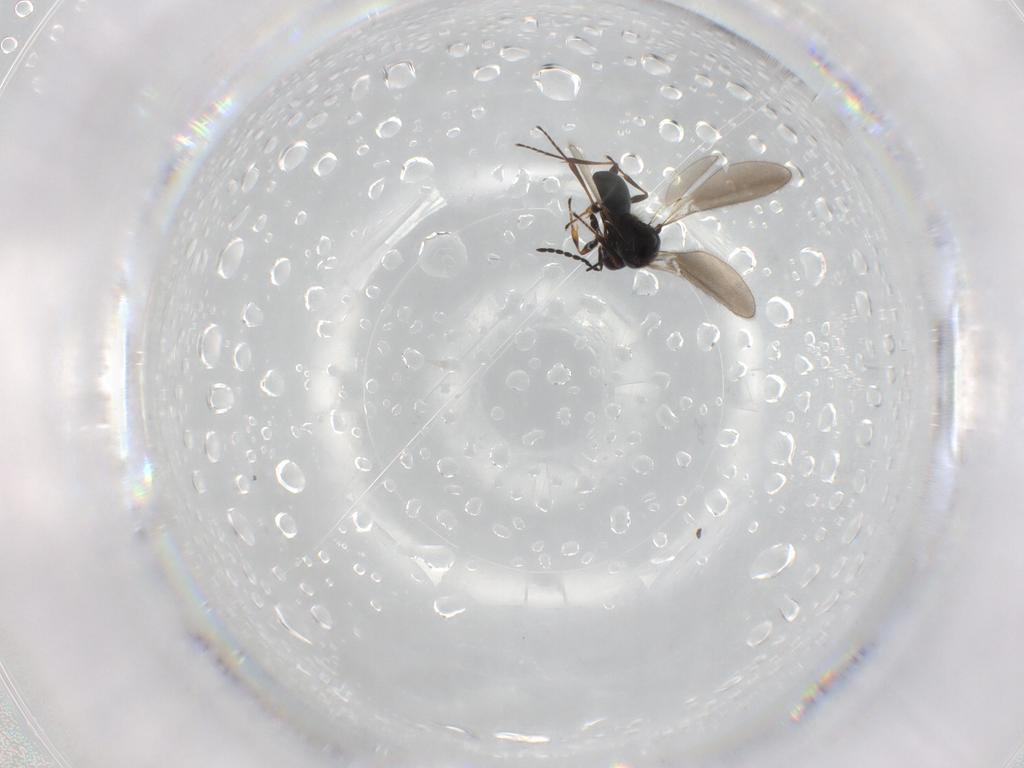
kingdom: Animalia
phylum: Arthropoda
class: Insecta
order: Hymenoptera
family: Platygastridae
